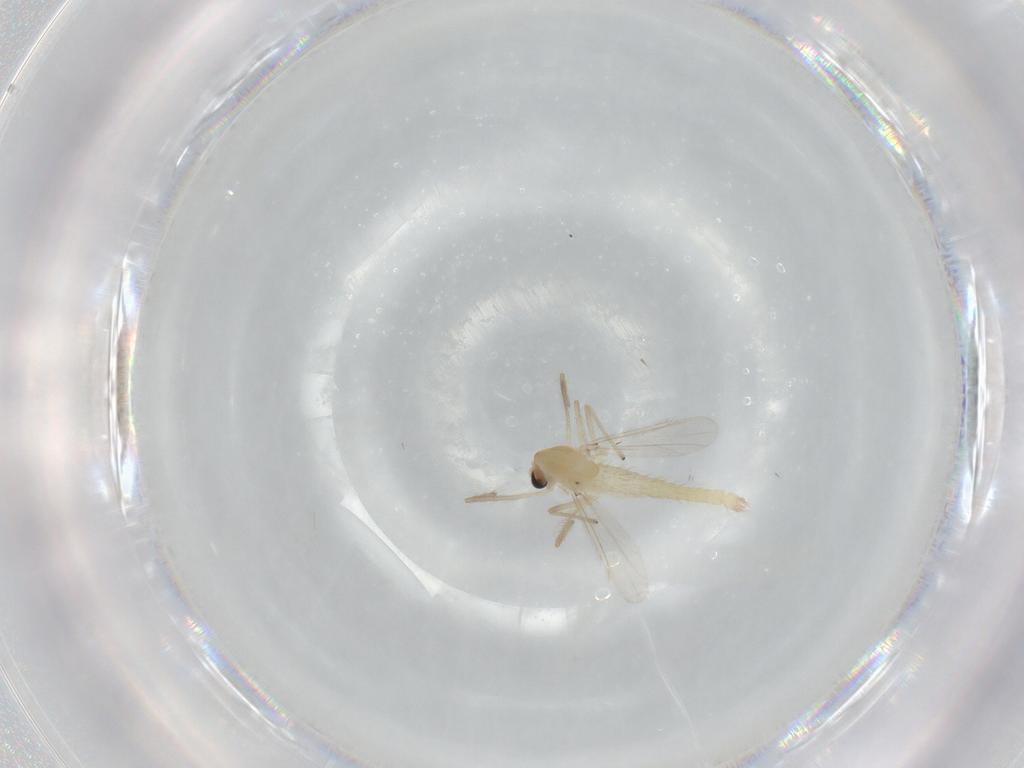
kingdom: Animalia
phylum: Arthropoda
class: Insecta
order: Diptera
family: Chironomidae
